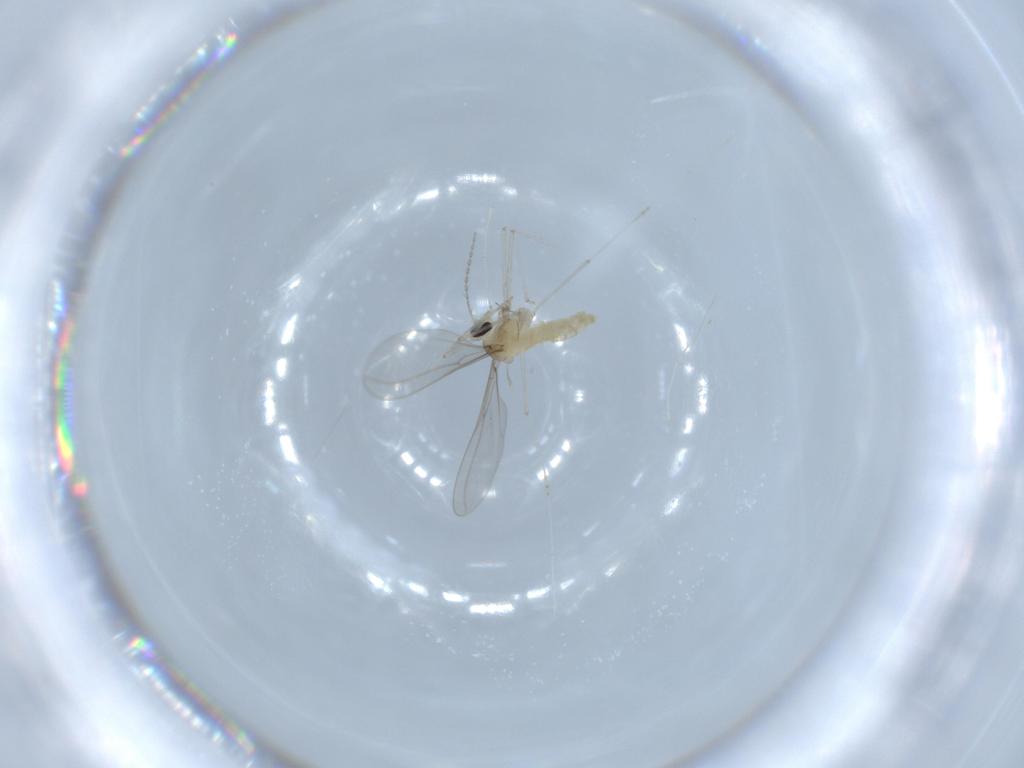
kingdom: Animalia
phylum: Arthropoda
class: Insecta
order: Diptera
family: Cecidomyiidae
